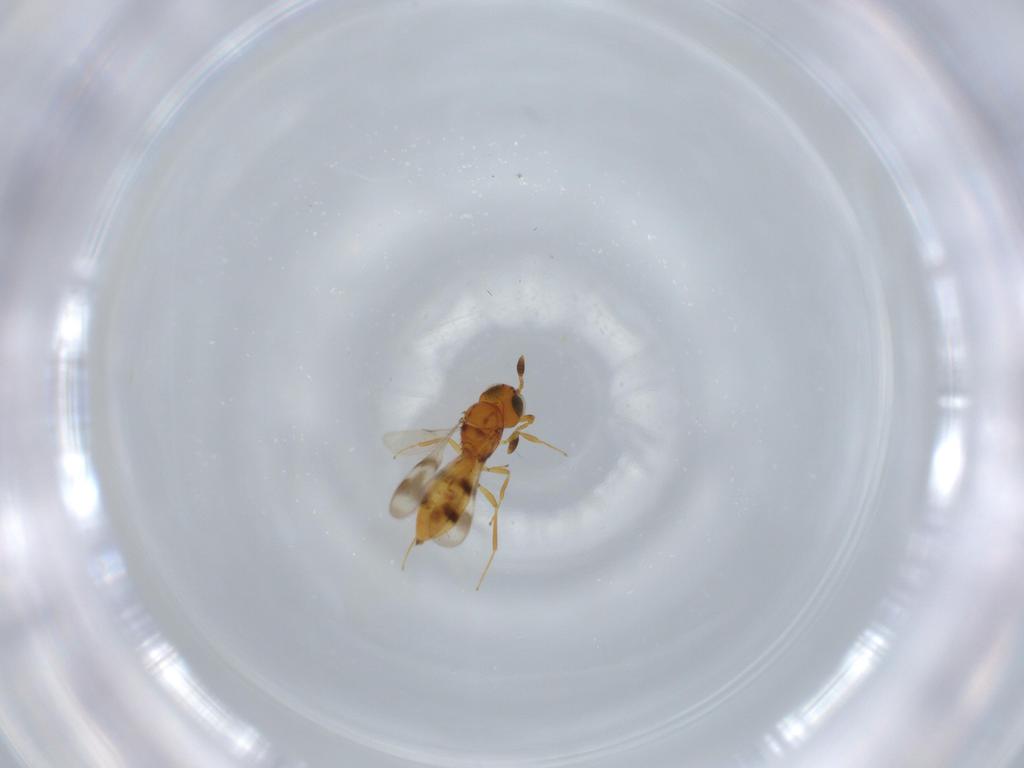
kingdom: Animalia
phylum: Arthropoda
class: Insecta
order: Hymenoptera
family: Scelionidae
